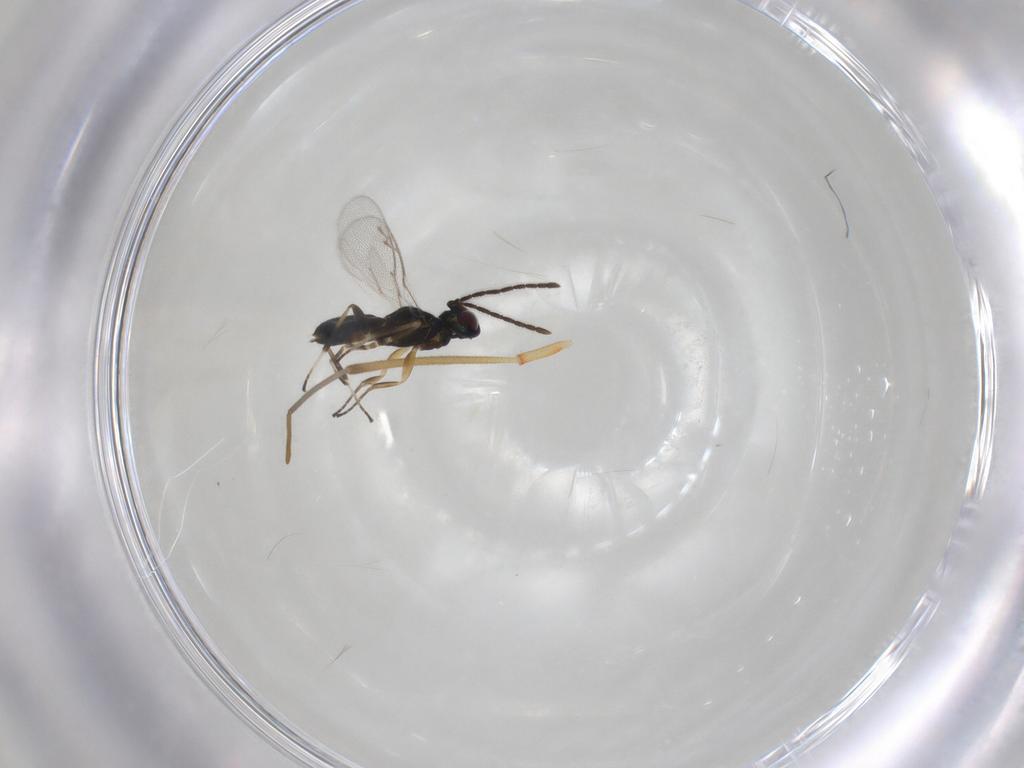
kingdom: Animalia
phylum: Arthropoda
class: Insecta
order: Hymenoptera
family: Eupelmidae
